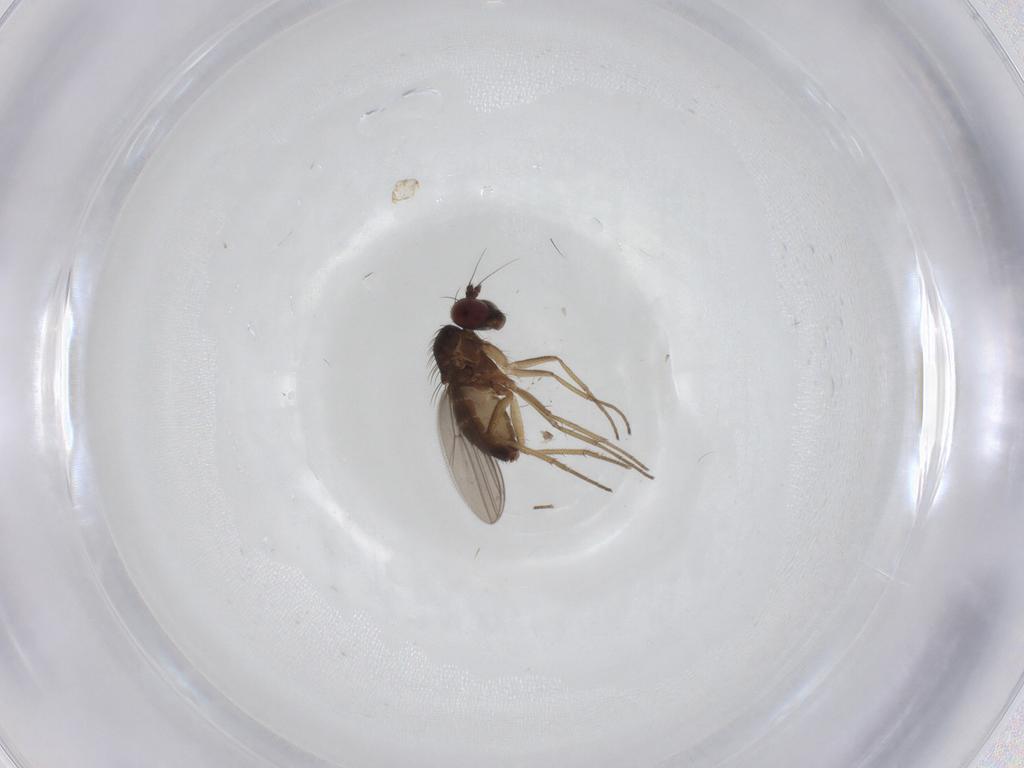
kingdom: Animalia
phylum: Arthropoda
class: Insecta
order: Diptera
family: Dolichopodidae
